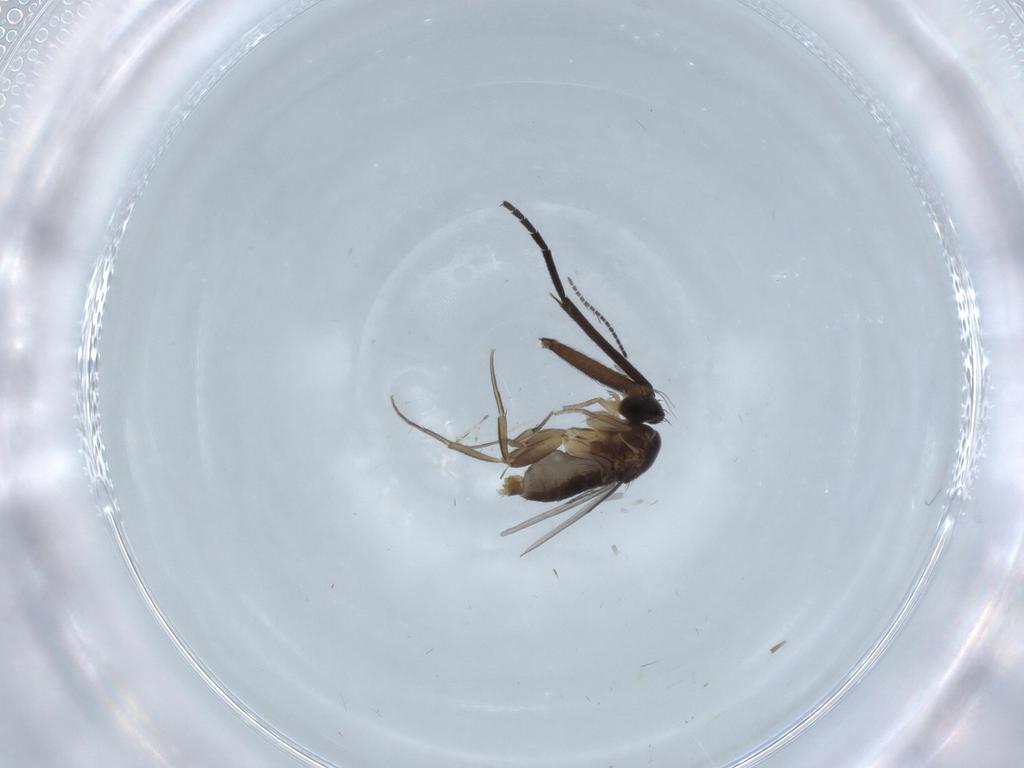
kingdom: Animalia
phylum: Arthropoda
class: Insecta
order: Diptera
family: Phoridae
